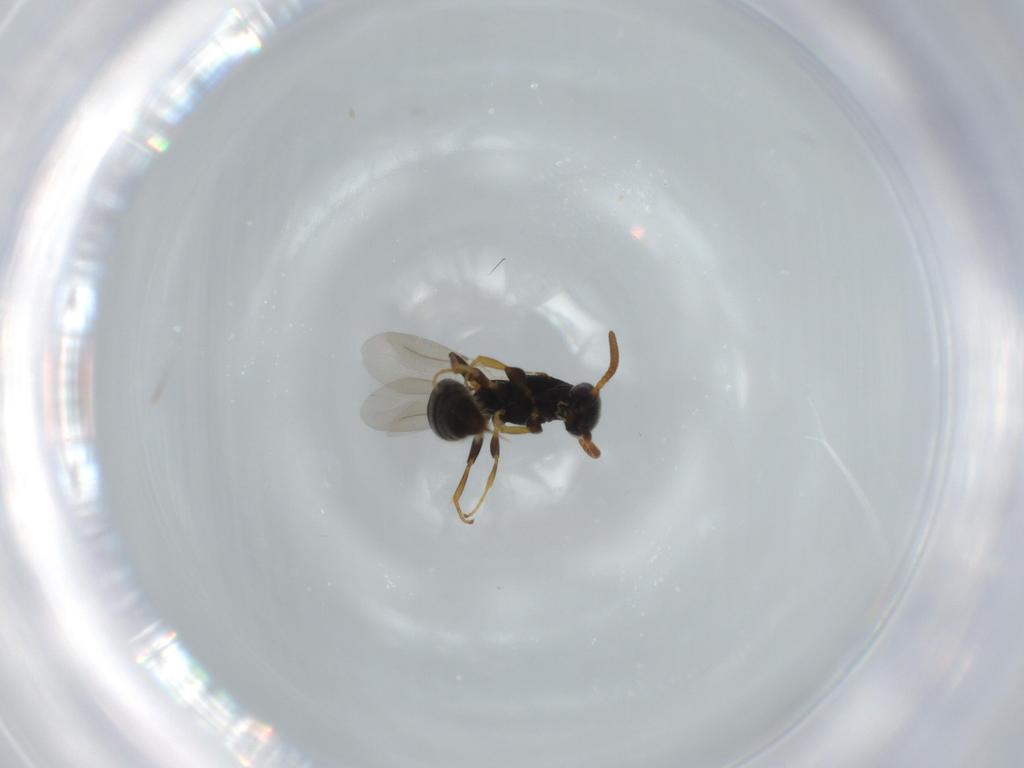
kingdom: Animalia
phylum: Arthropoda
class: Insecta
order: Hymenoptera
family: Bethylidae
